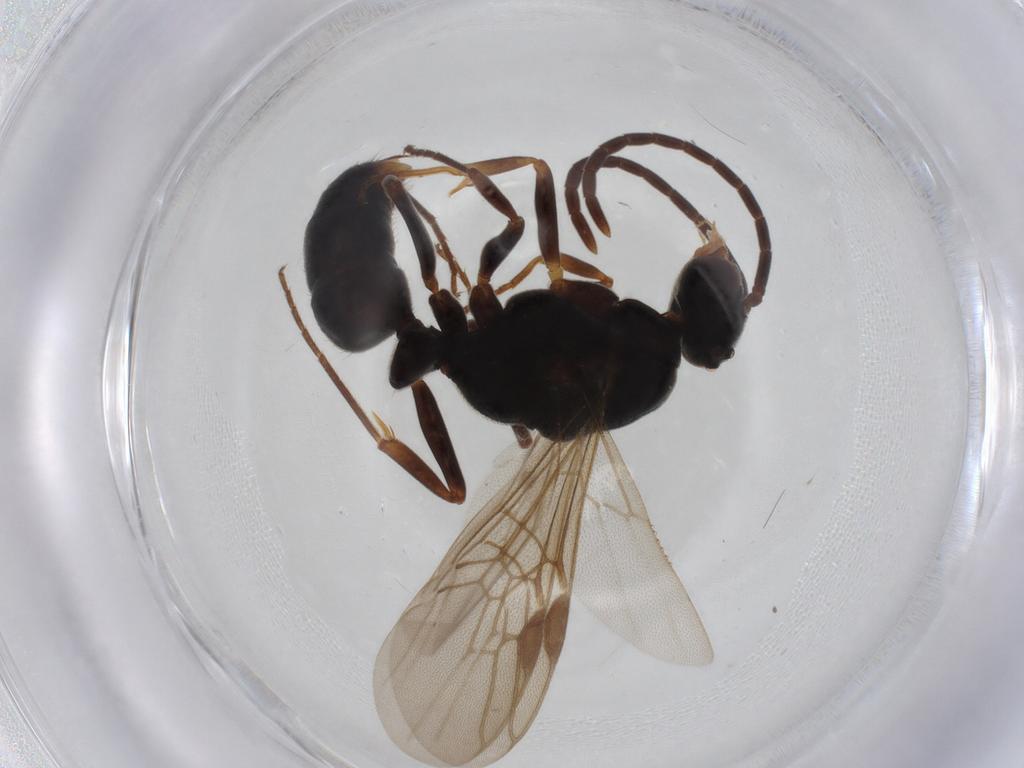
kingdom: Animalia
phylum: Arthropoda
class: Insecta
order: Hymenoptera
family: Formicidae
